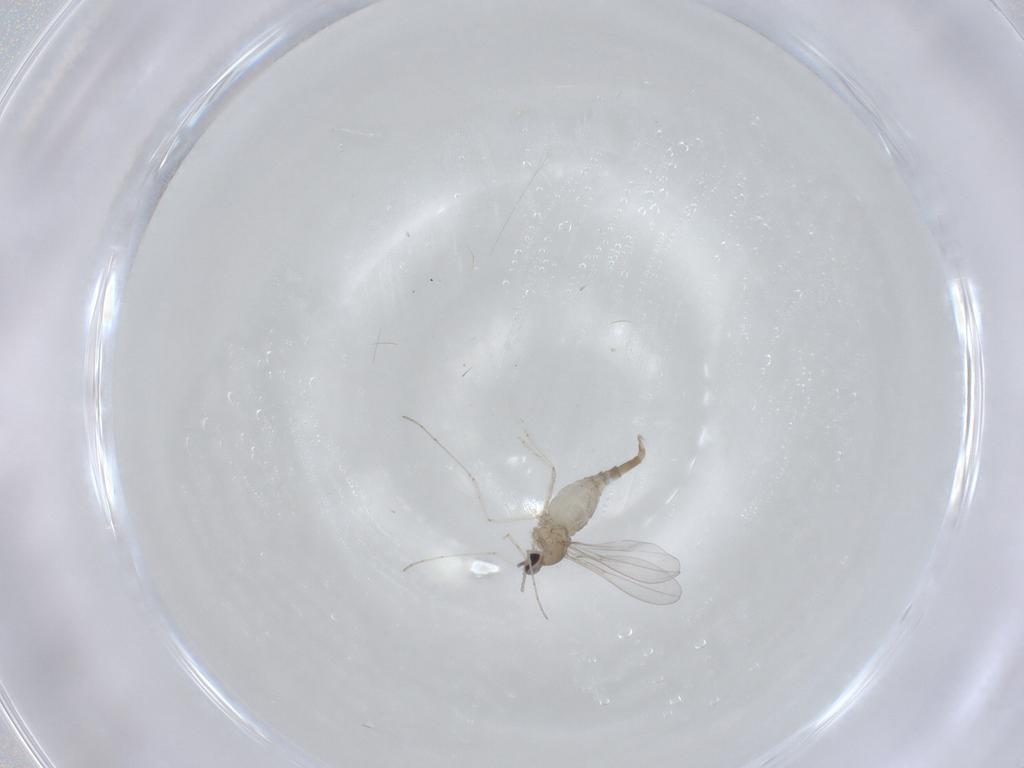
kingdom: Animalia
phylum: Arthropoda
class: Insecta
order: Diptera
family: Cecidomyiidae
